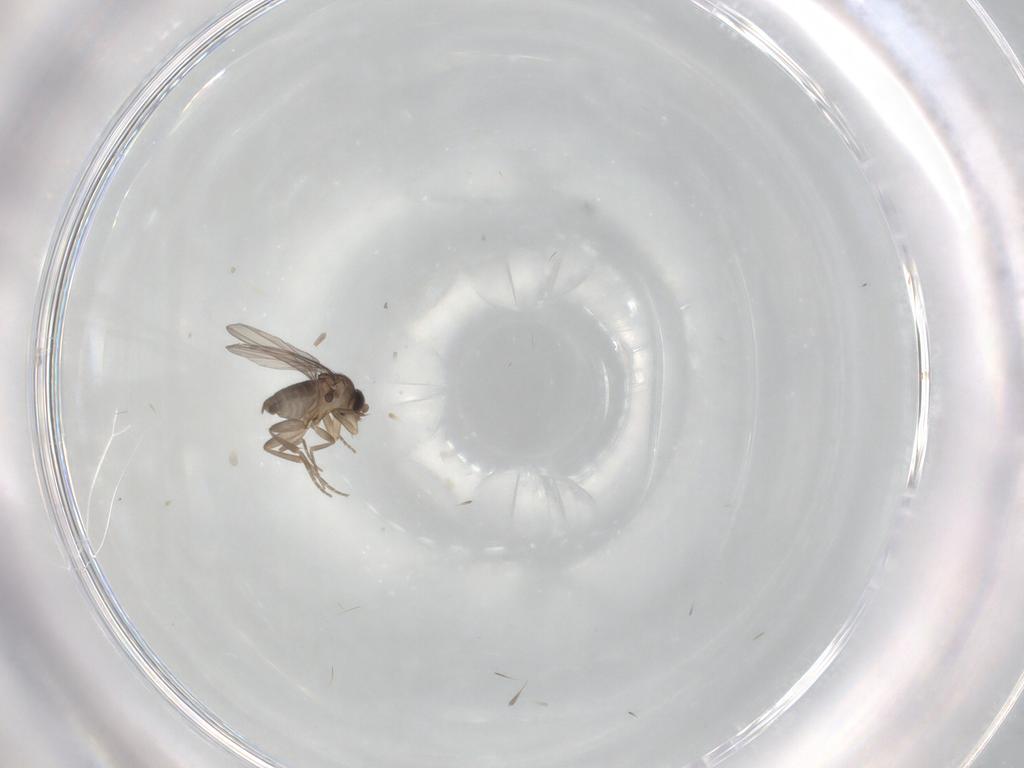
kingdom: Animalia
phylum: Arthropoda
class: Insecta
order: Diptera
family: Phoridae
